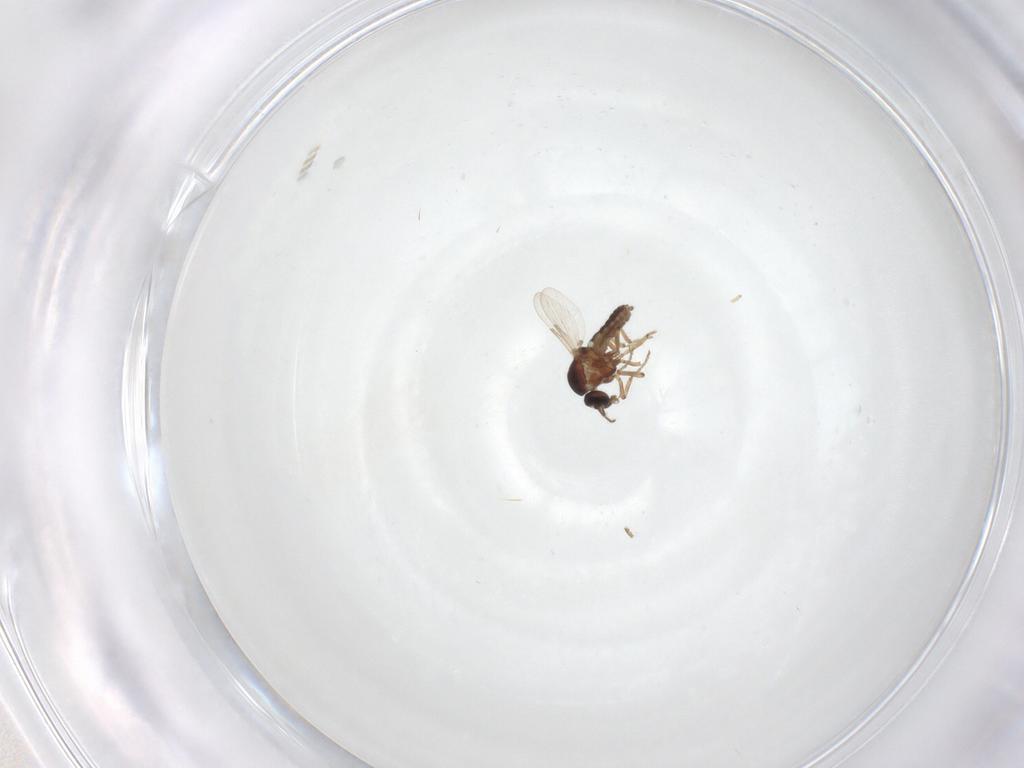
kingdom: Animalia
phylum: Arthropoda
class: Insecta
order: Diptera
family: Ceratopogonidae
